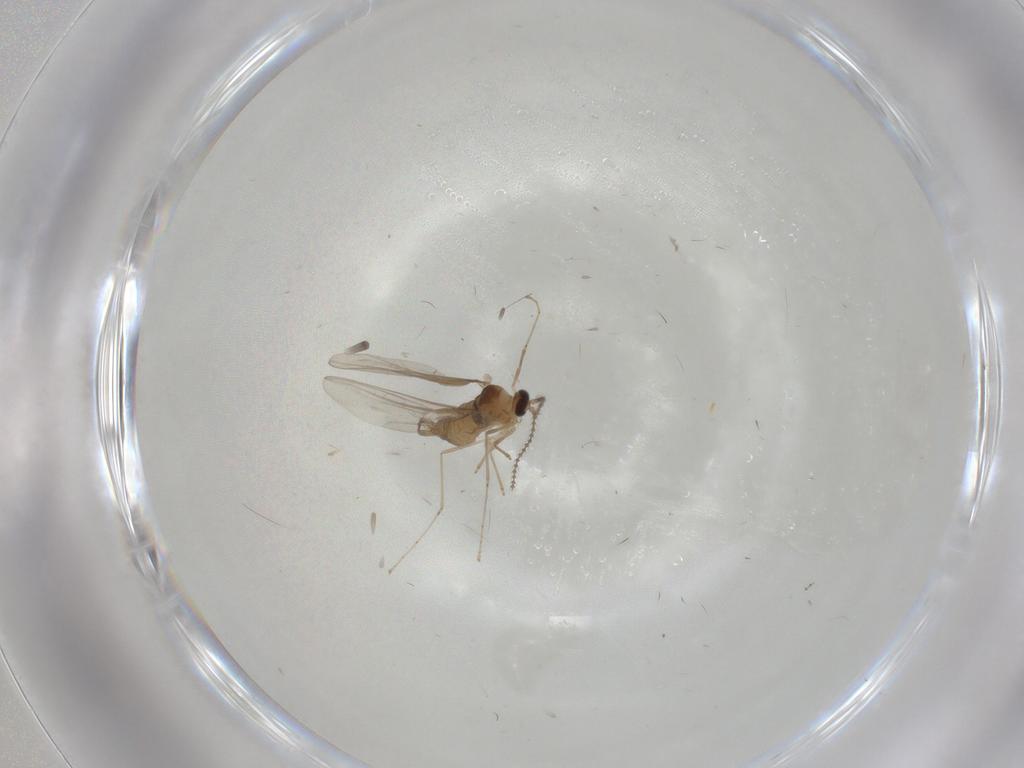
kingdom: Animalia
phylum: Arthropoda
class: Insecta
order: Diptera
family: Cecidomyiidae
